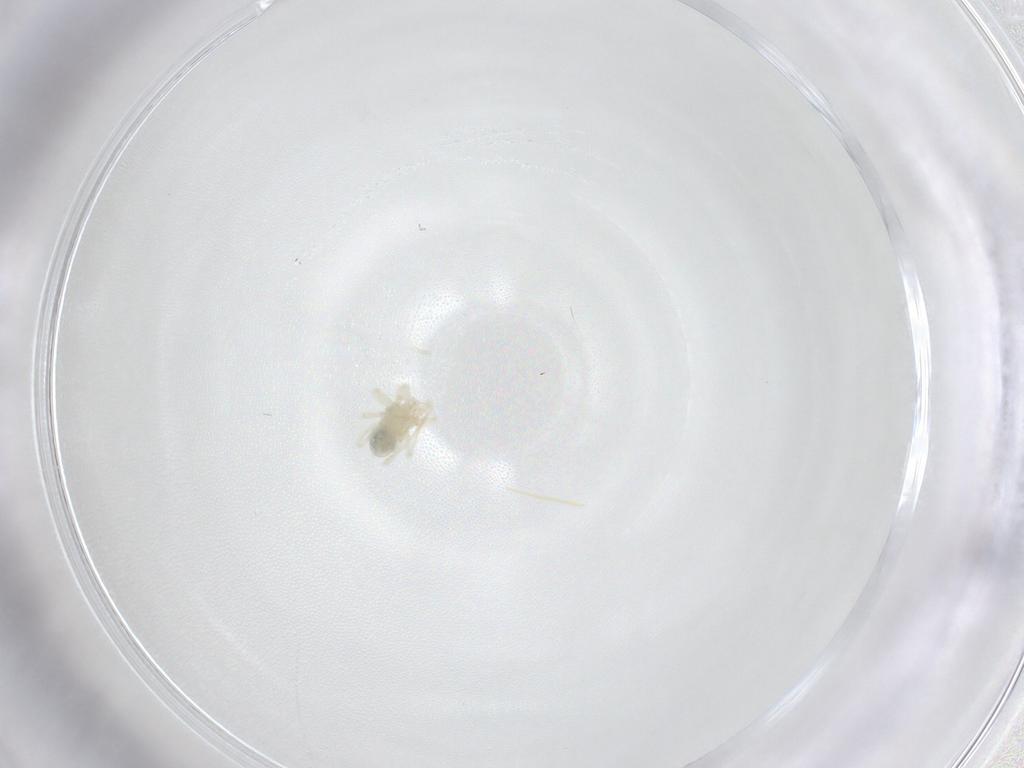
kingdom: Animalia
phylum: Arthropoda
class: Arachnida
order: Trombidiformes
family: Anystidae
